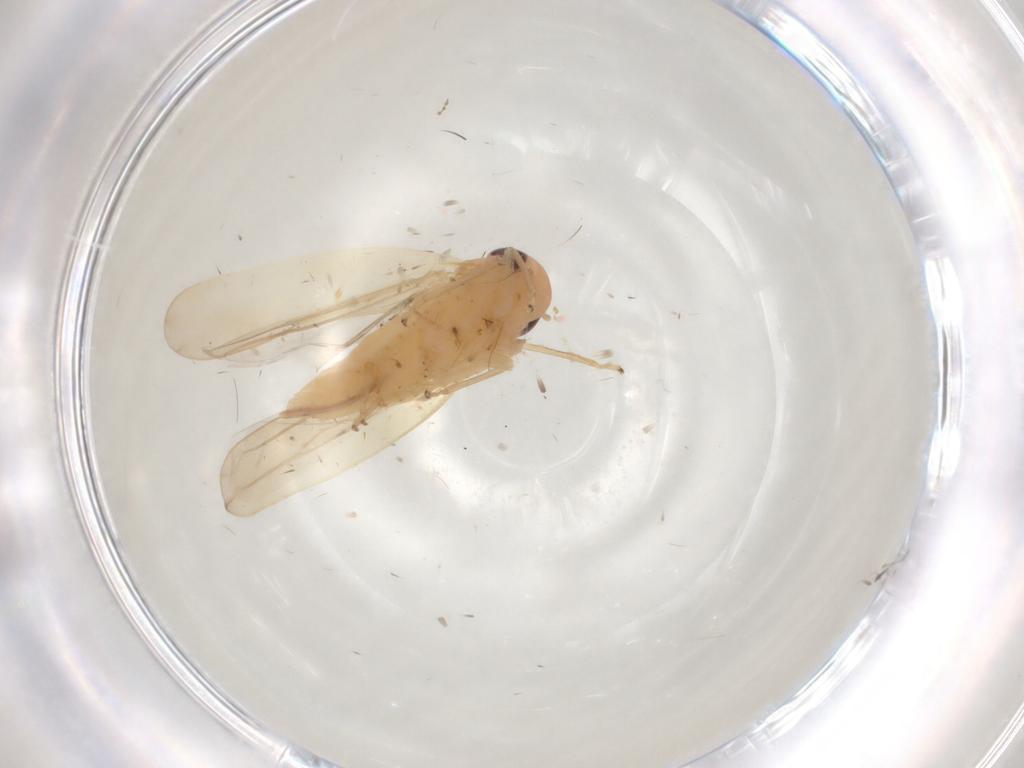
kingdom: Animalia
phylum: Arthropoda
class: Insecta
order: Hemiptera
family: Cicadellidae
